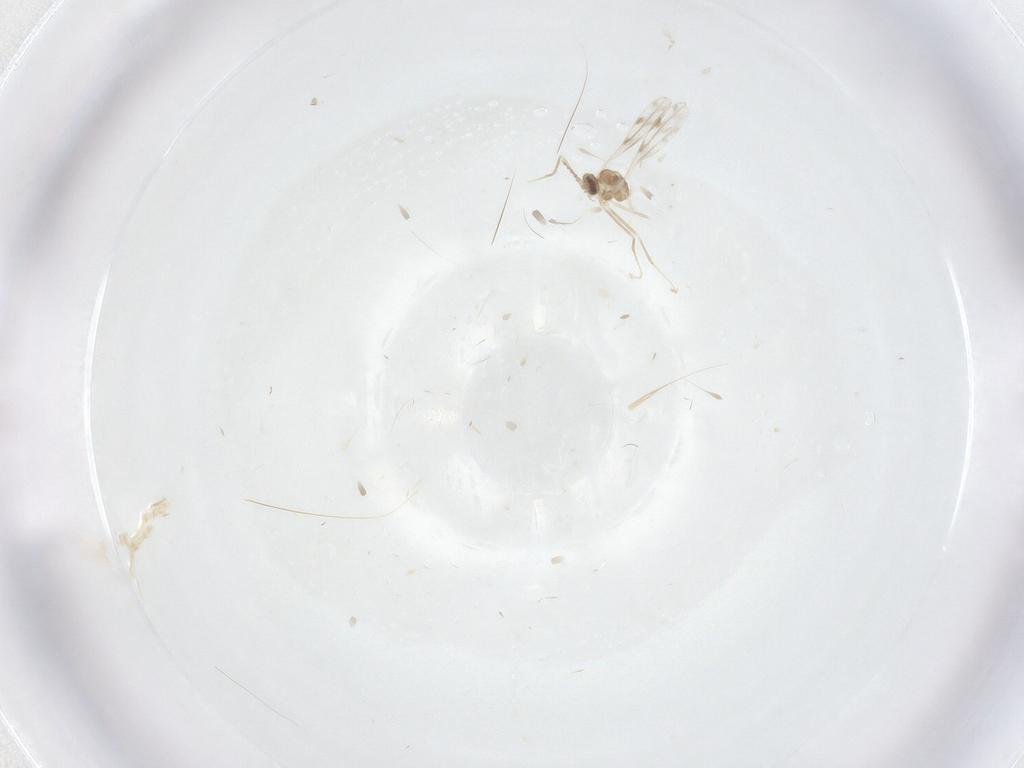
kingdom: Animalia
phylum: Arthropoda
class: Insecta
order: Diptera
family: Cecidomyiidae
